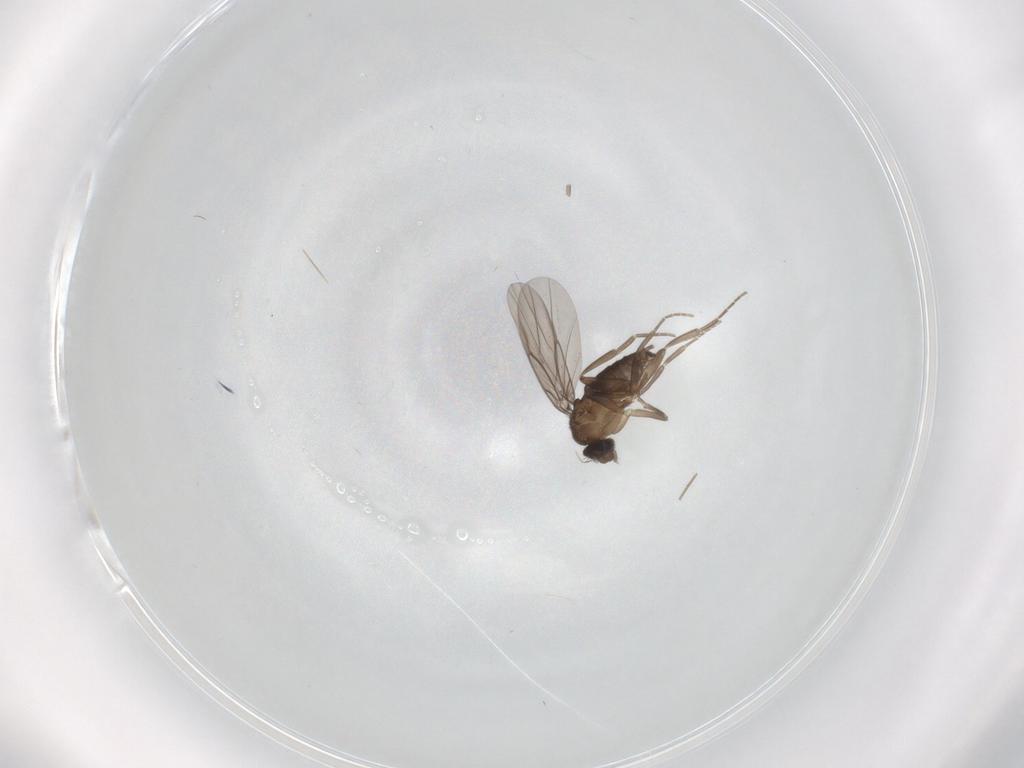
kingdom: Animalia
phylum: Arthropoda
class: Insecta
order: Diptera
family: Phoridae
